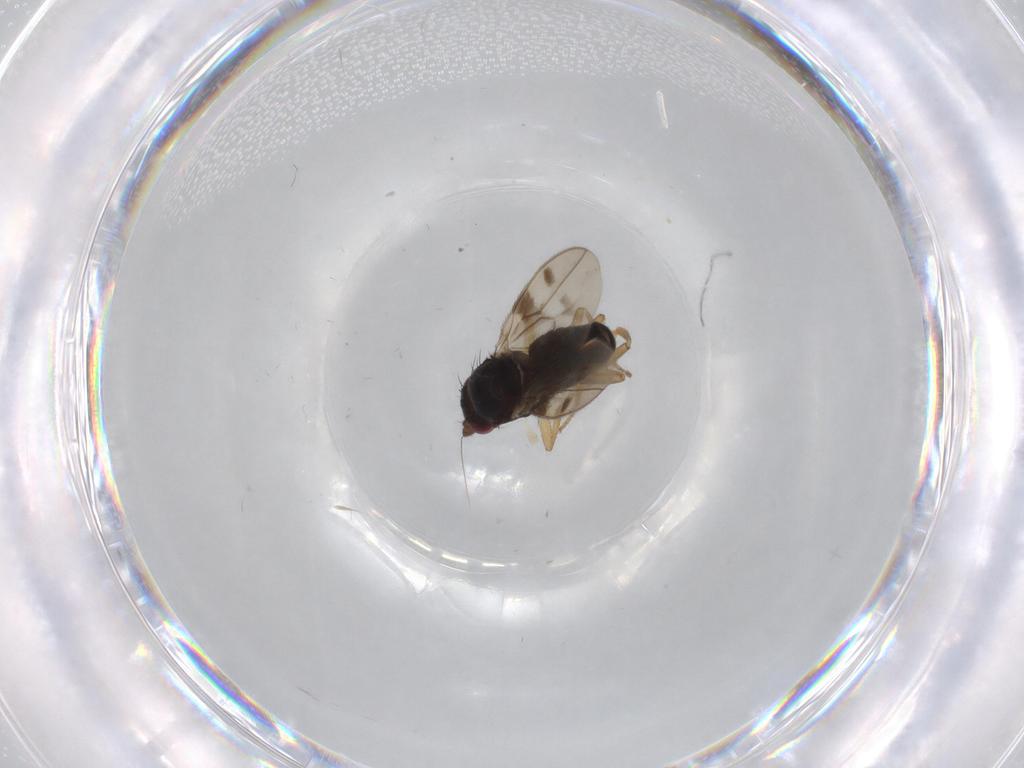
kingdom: Animalia
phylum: Arthropoda
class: Insecta
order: Diptera
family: Sphaeroceridae
